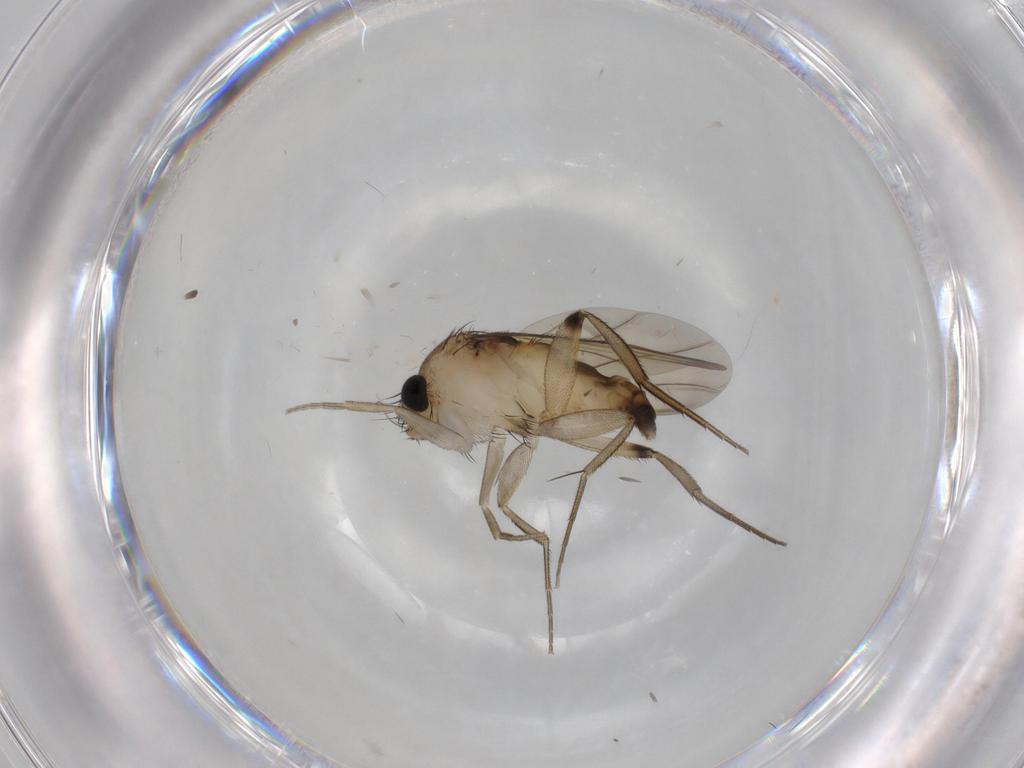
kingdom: Animalia
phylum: Arthropoda
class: Insecta
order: Diptera
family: Phoridae
